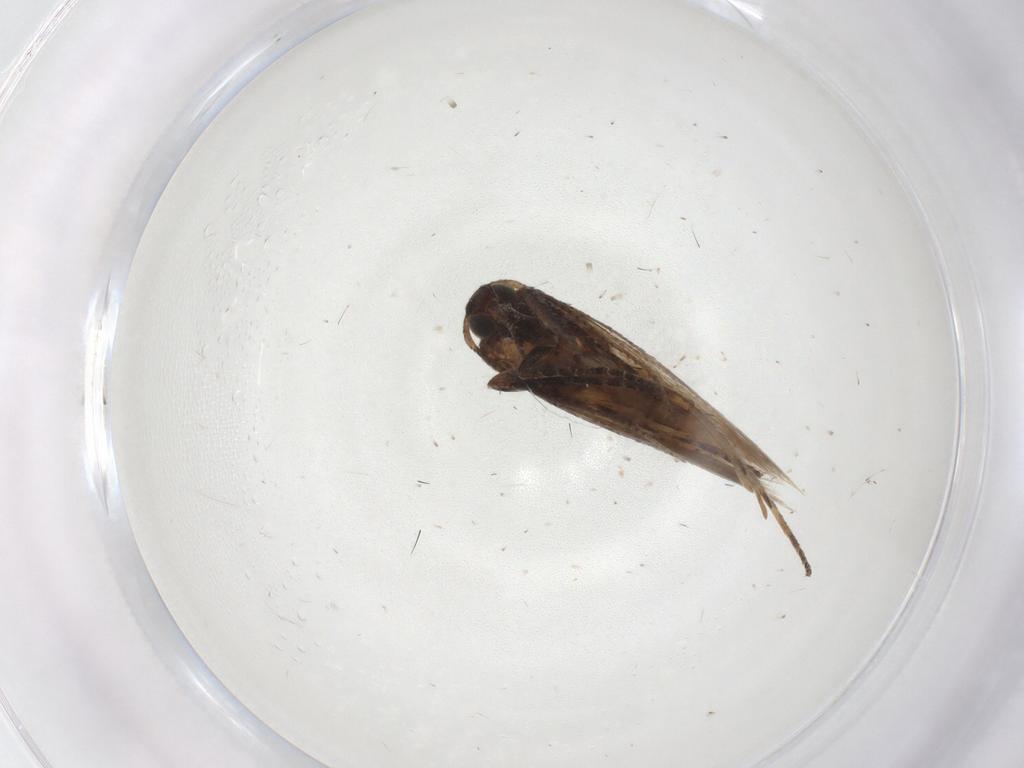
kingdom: Animalia
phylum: Arthropoda
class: Insecta
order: Lepidoptera
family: Gelechiidae
